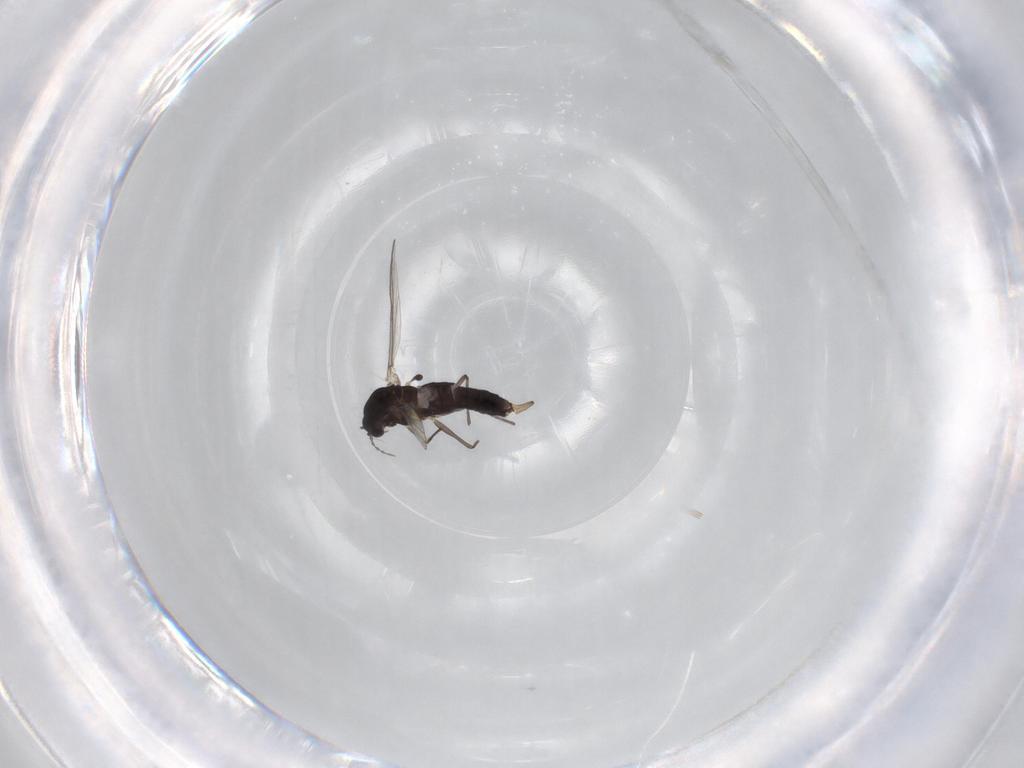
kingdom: Animalia
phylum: Arthropoda
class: Insecta
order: Diptera
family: Chironomidae
